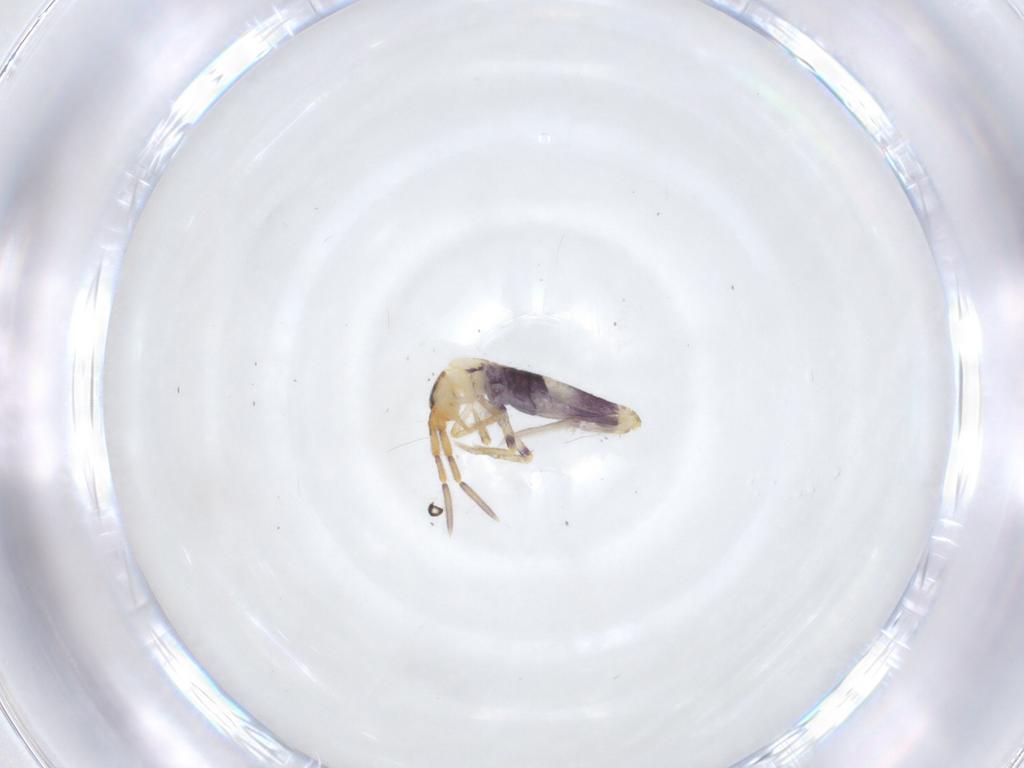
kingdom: Animalia
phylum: Arthropoda
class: Collembola
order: Entomobryomorpha
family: Entomobryidae
